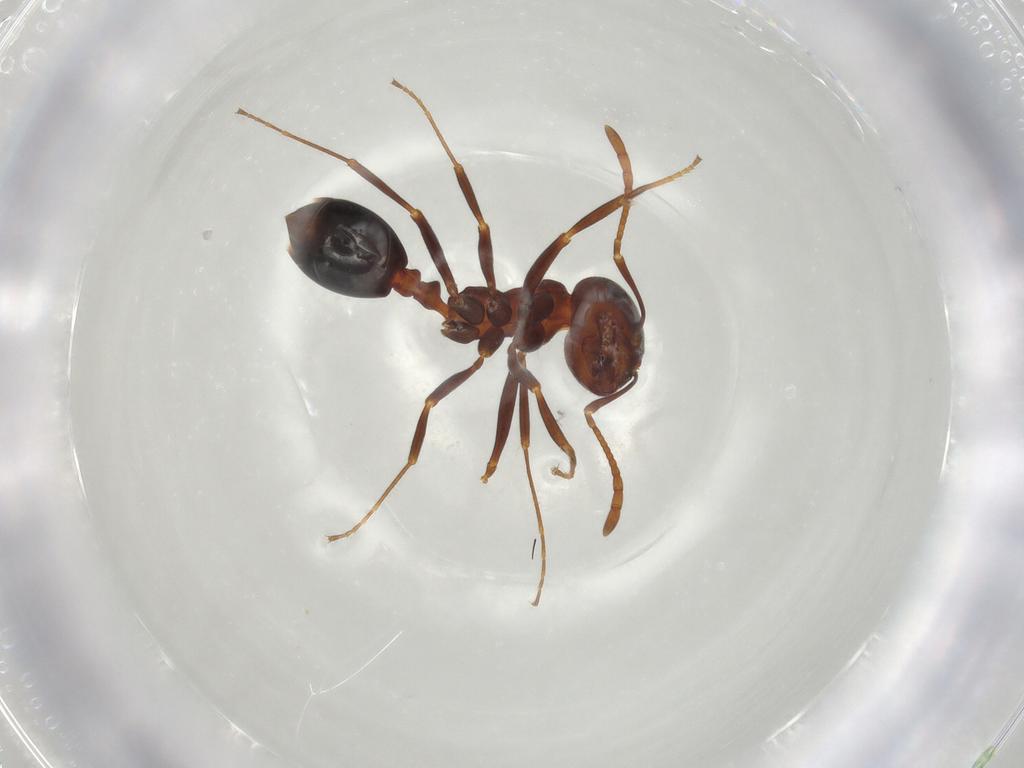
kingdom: Animalia
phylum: Arthropoda
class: Insecta
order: Hymenoptera
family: Formicidae
